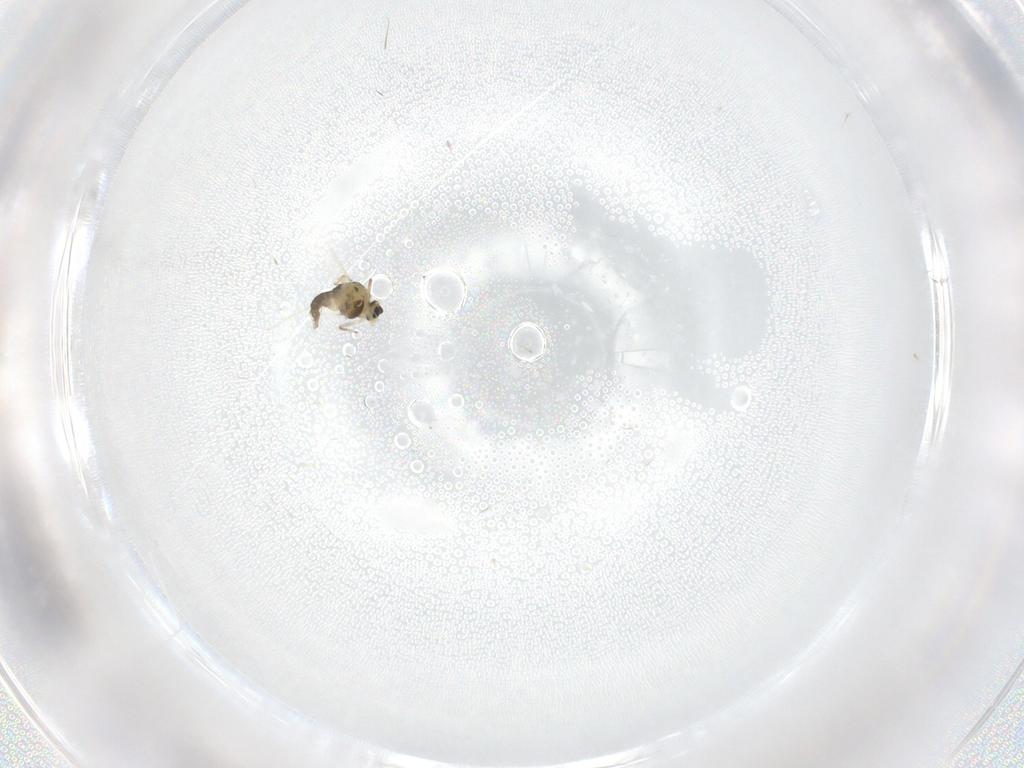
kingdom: Animalia
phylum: Arthropoda
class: Insecta
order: Diptera
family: Chironomidae
